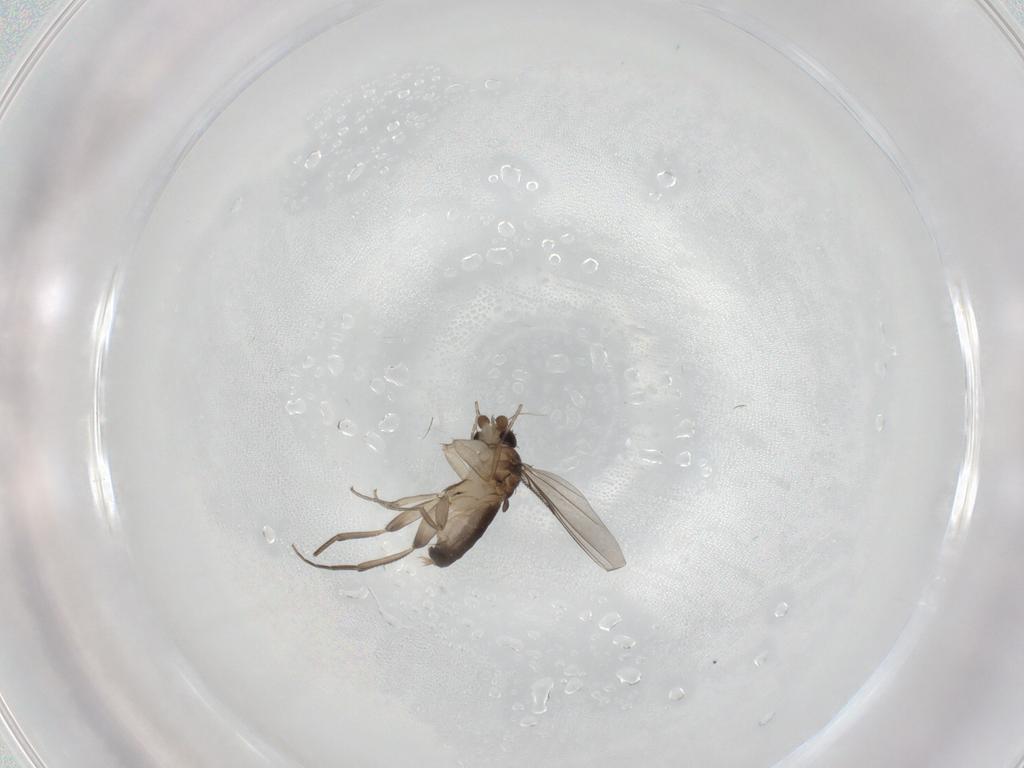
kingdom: Animalia
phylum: Arthropoda
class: Insecta
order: Diptera
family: Phoridae
